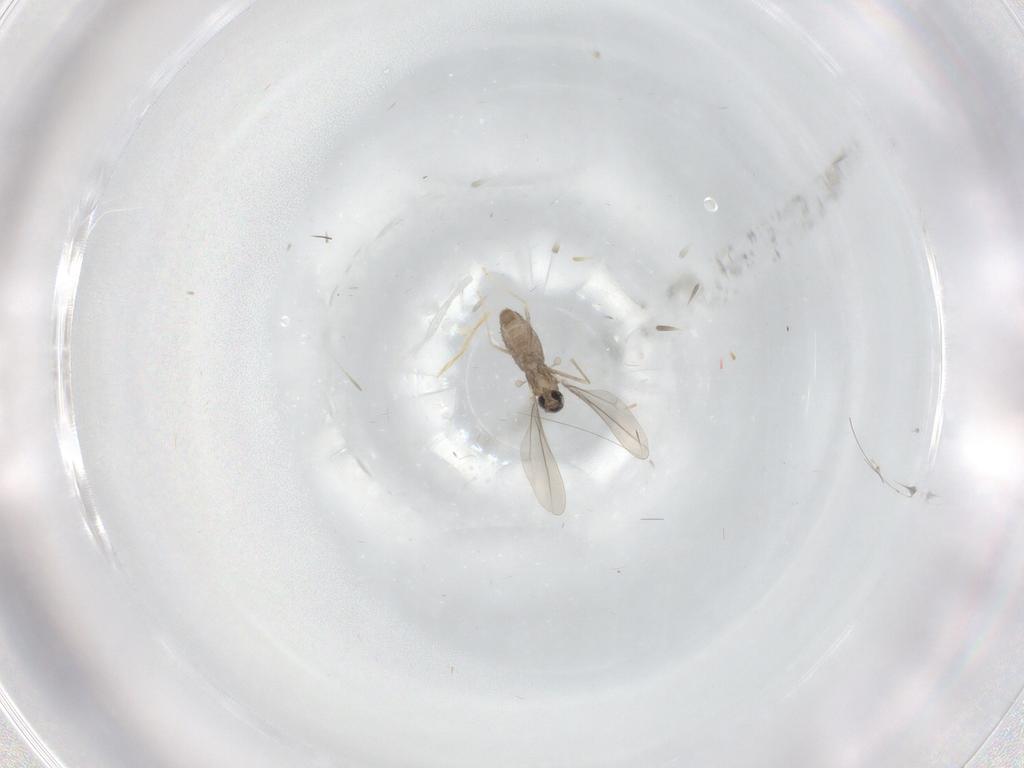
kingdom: Animalia
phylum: Arthropoda
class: Insecta
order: Diptera
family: Cecidomyiidae
